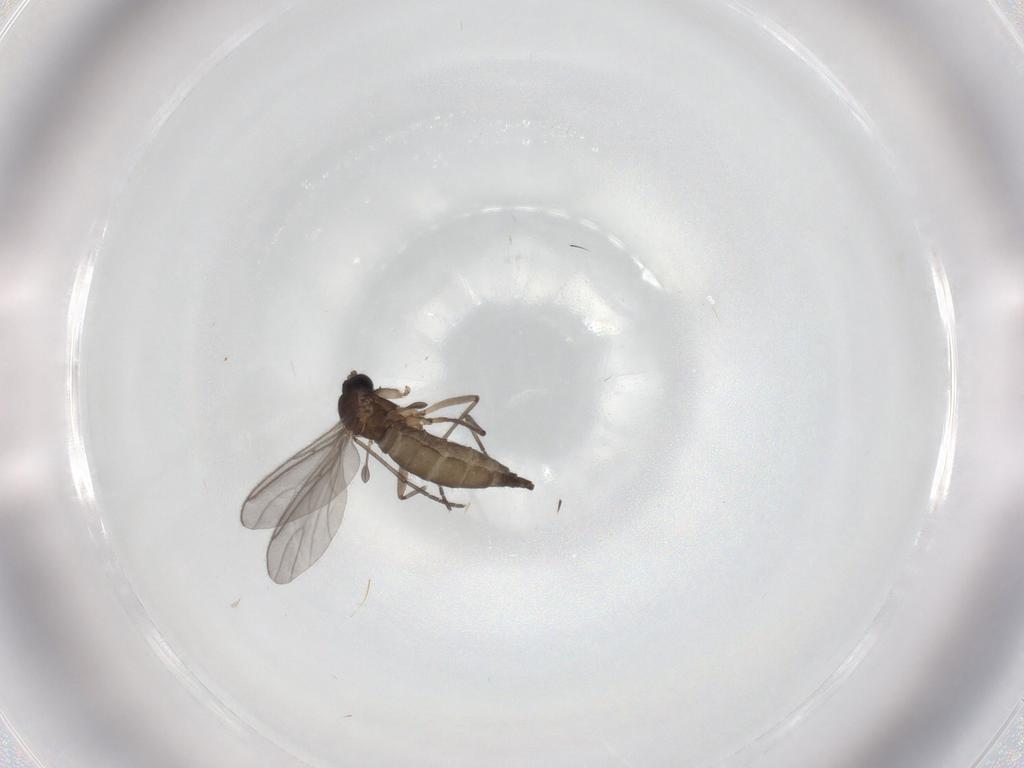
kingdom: Animalia
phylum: Arthropoda
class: Insecta
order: Diptera
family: Sciaridae
